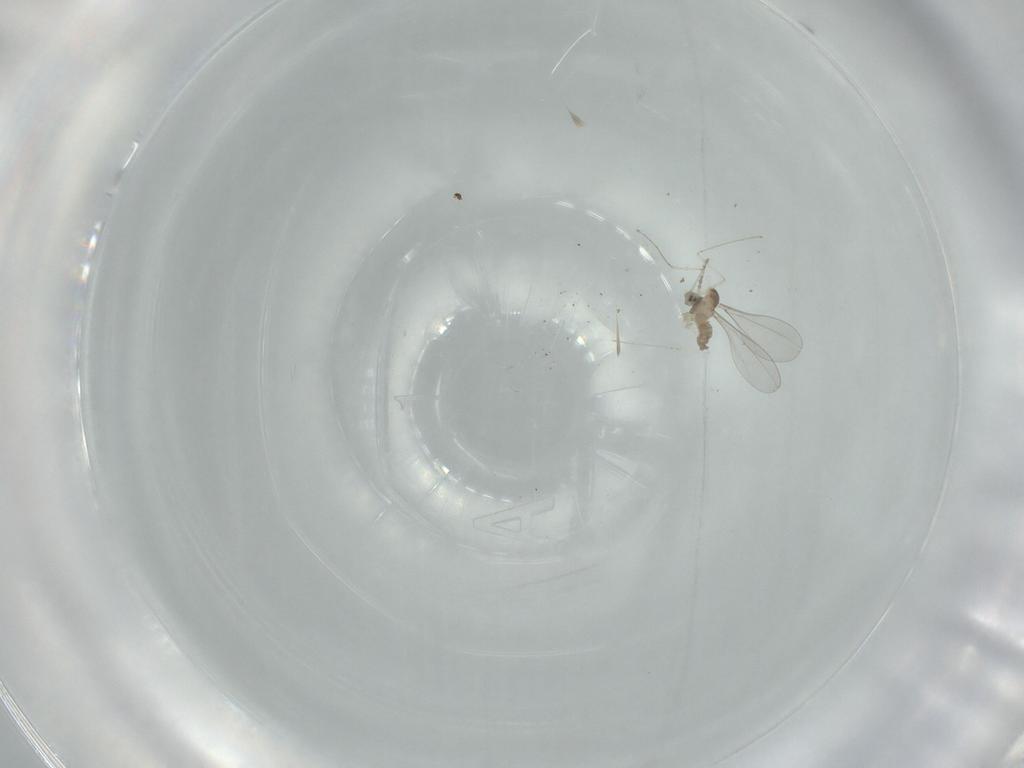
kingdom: Animalia
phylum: Arthropoda
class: Insecta
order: Diptera
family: Cecidomyiidae
